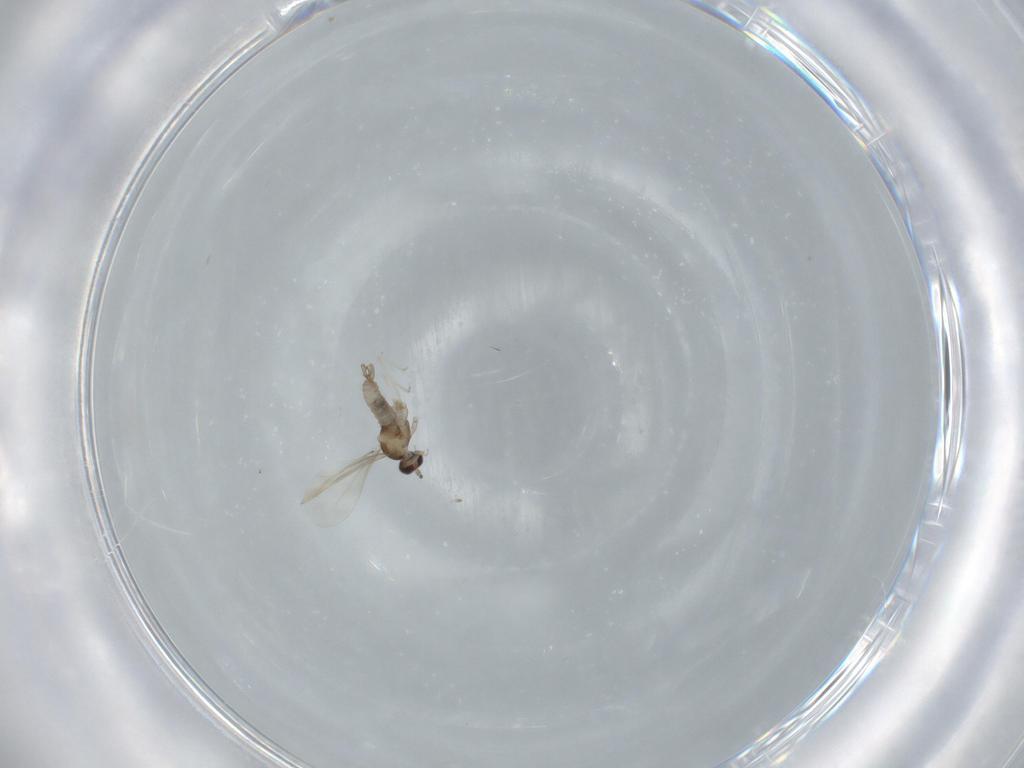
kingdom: Animalia
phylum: Arthropoda
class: Insecta
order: Diptera
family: Cecidomyiidae
